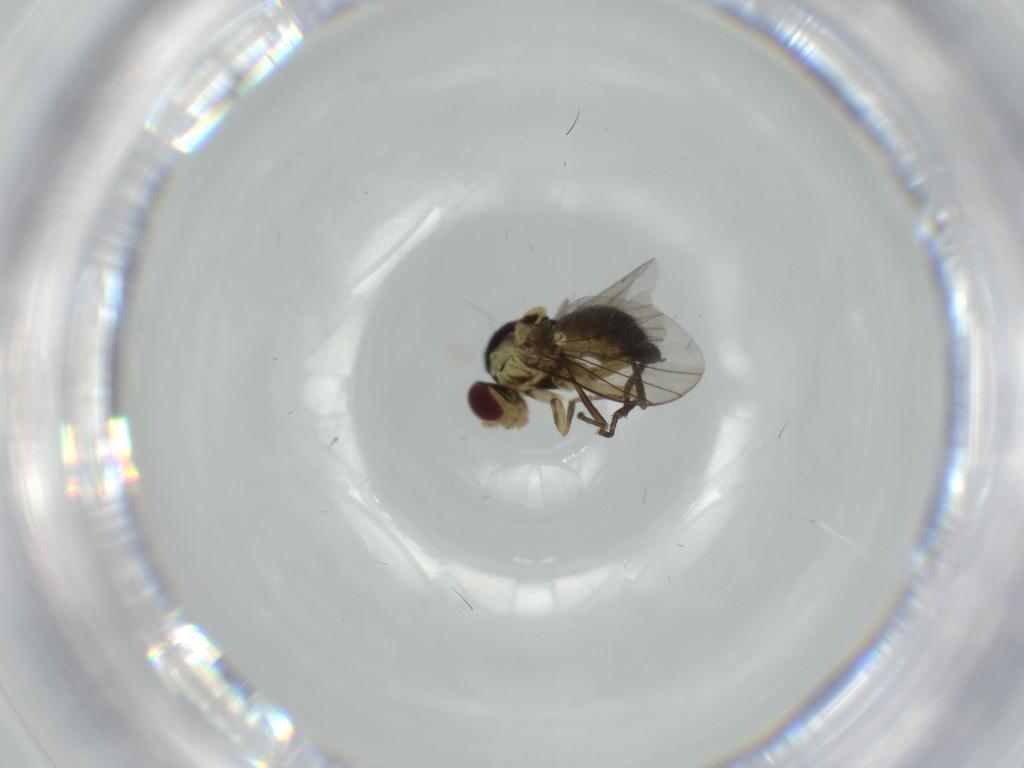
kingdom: Animalia
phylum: Arthropoda
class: Insecta
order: Diptera
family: Agromyzidae
